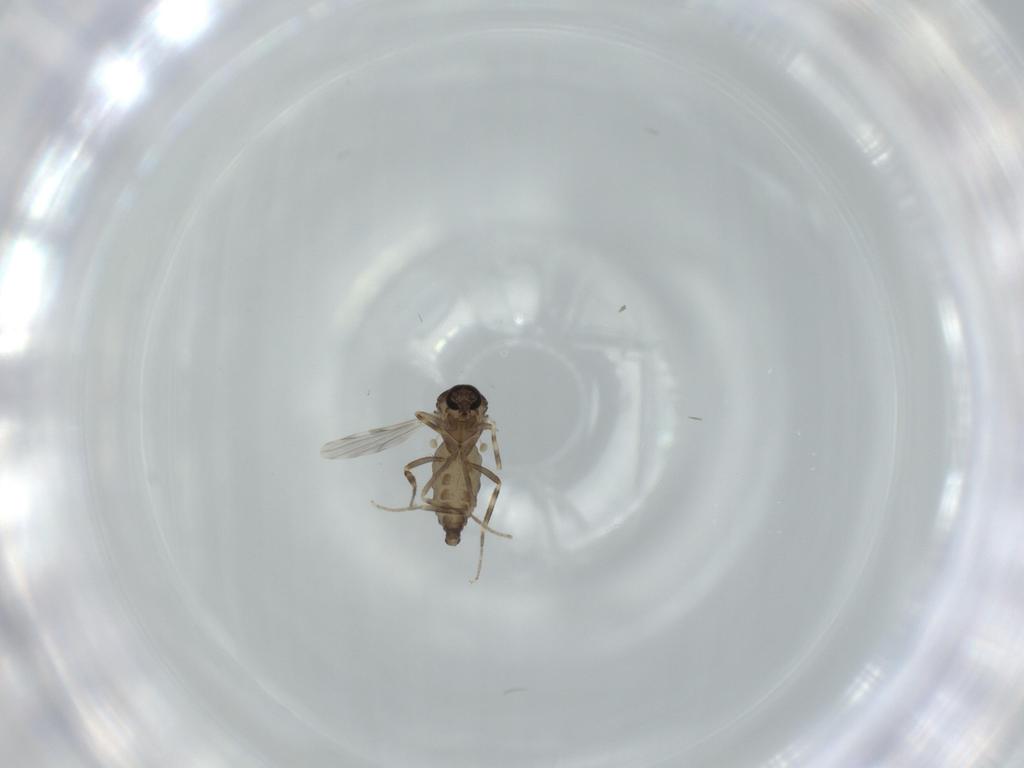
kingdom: Animalia
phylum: Arthropoda
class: Insecta
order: Diptera
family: Ceratopogonidae
